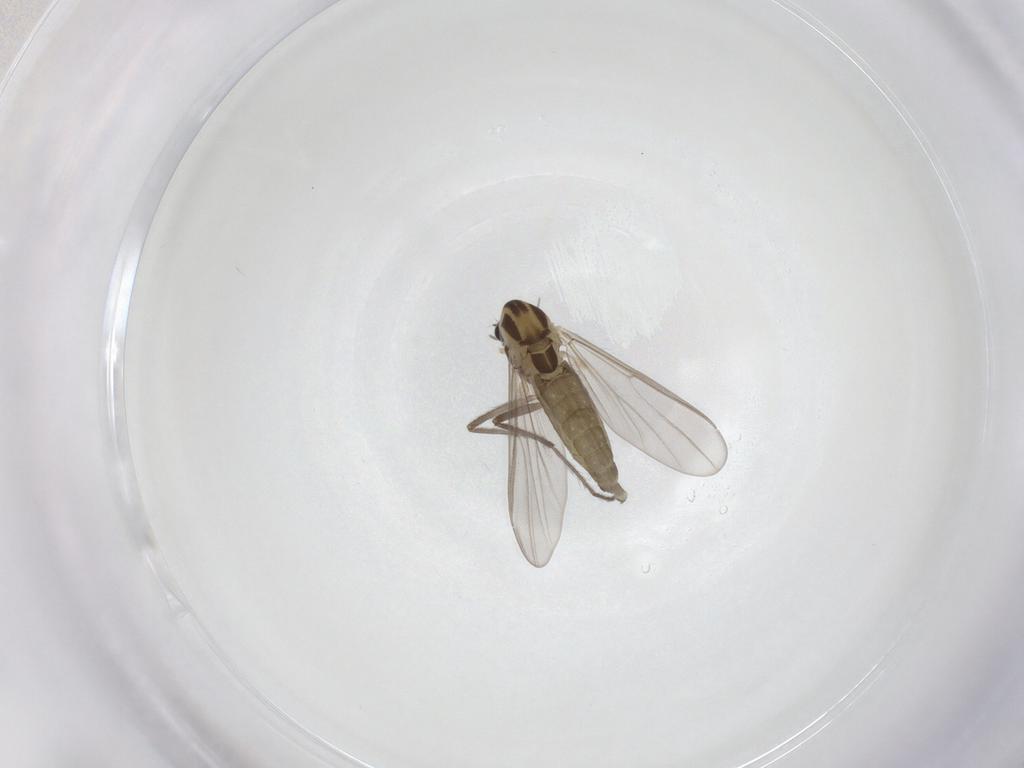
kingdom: Animalia
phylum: Arthropoda
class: Insecta
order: Diptera
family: Chironomidae
